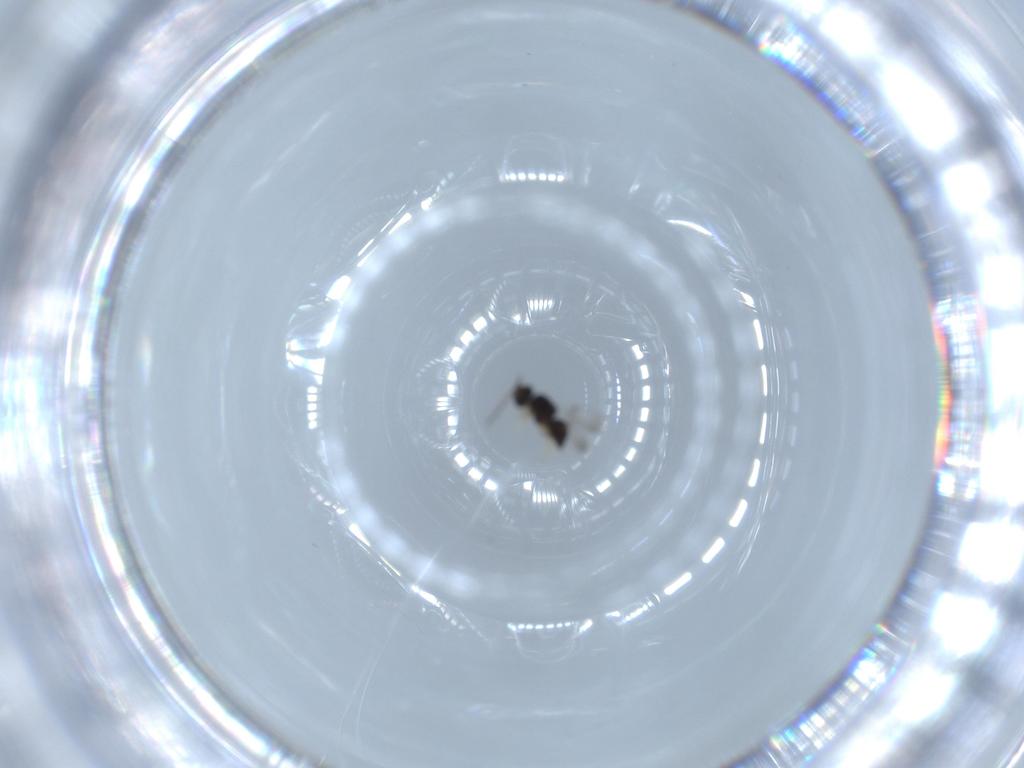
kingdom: Animalia
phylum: Arthropoda
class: Insecta
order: Hymenoptera
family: Ceraphronidae
